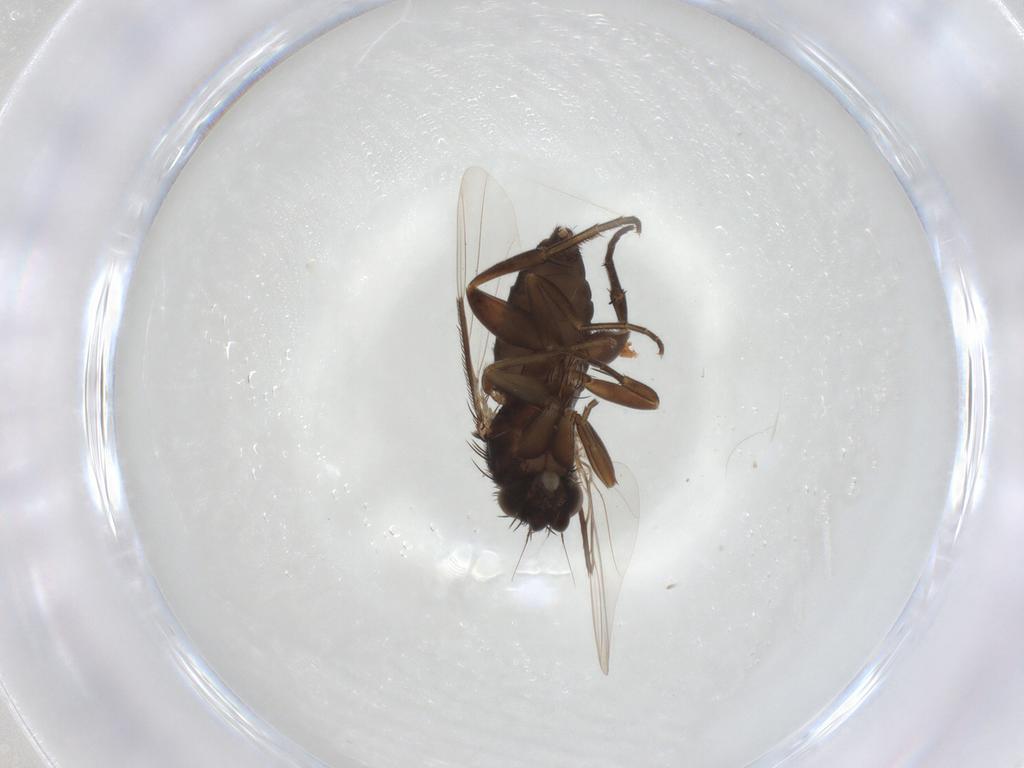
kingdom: Animalia
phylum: Arthropoda
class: Insecta
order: Diptera
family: Phoridae
